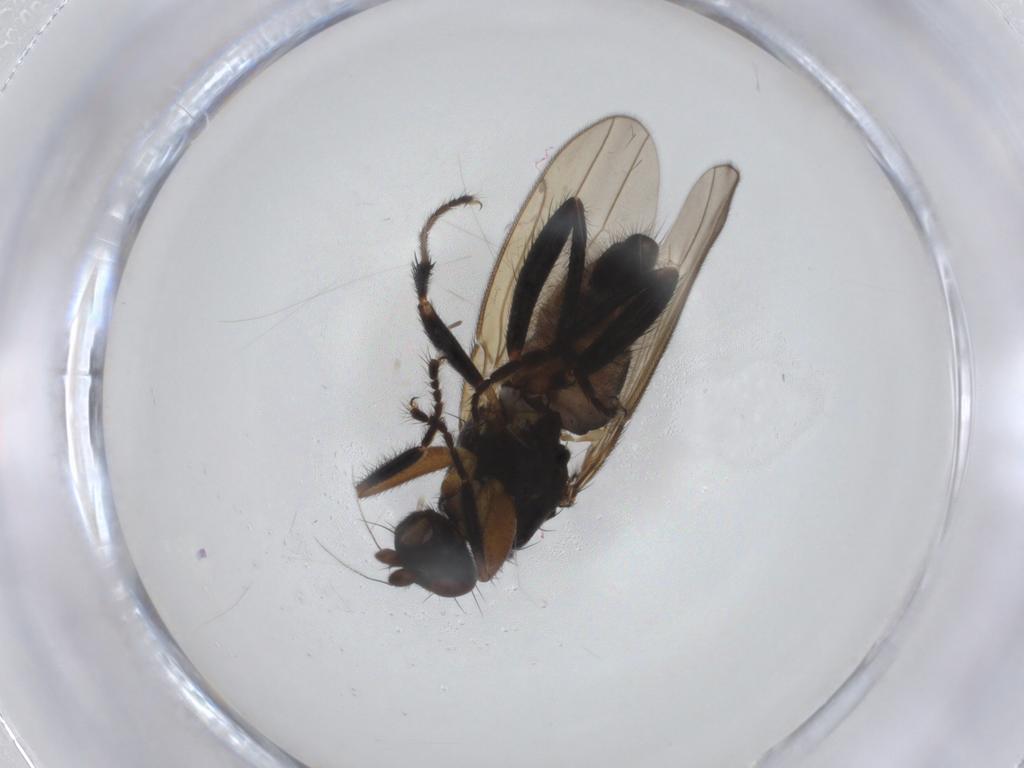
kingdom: Animalia
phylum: Arthropoda
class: Insecta
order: Diptera
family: Sphaeroceridae
